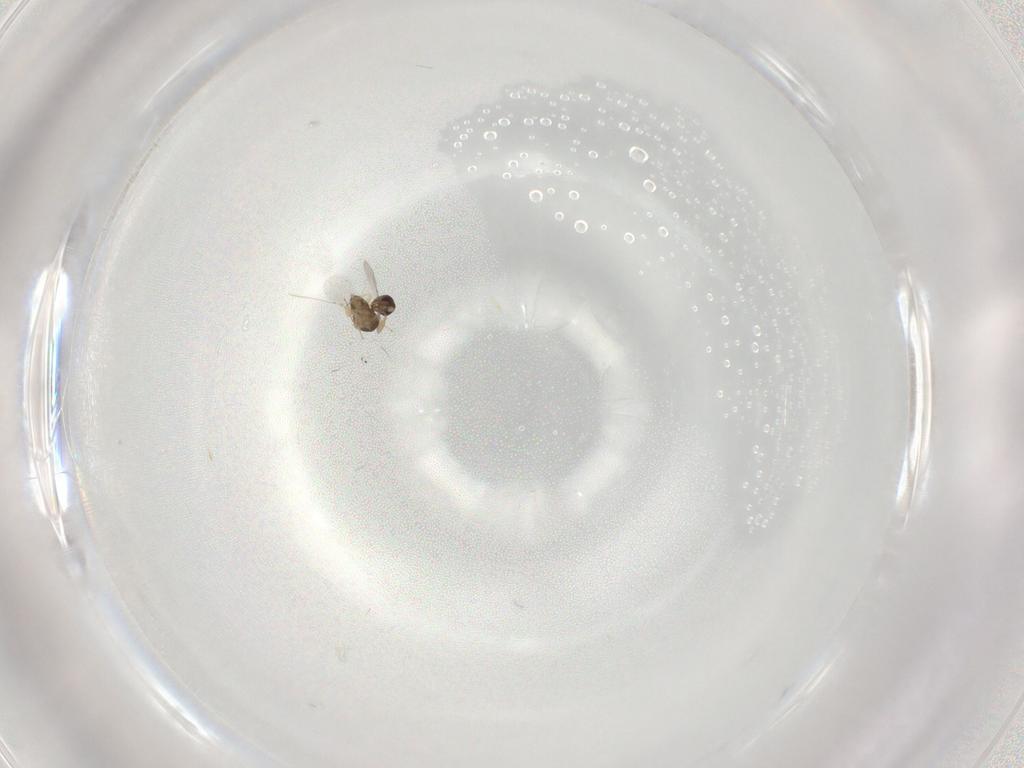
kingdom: Animalia
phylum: Arthropoda
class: Insecta
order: Hymenoptera
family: Encyrtidae
